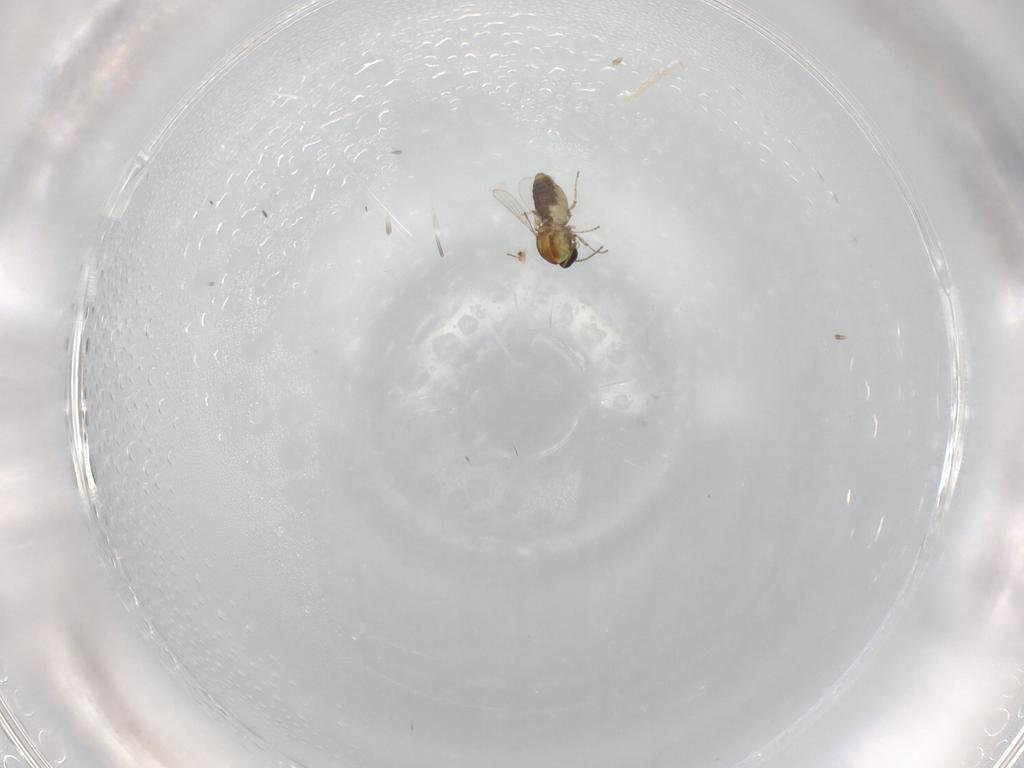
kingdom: Animalia
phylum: Arthropoda
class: Insecta
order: Diptera
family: Ceratopogonidae
